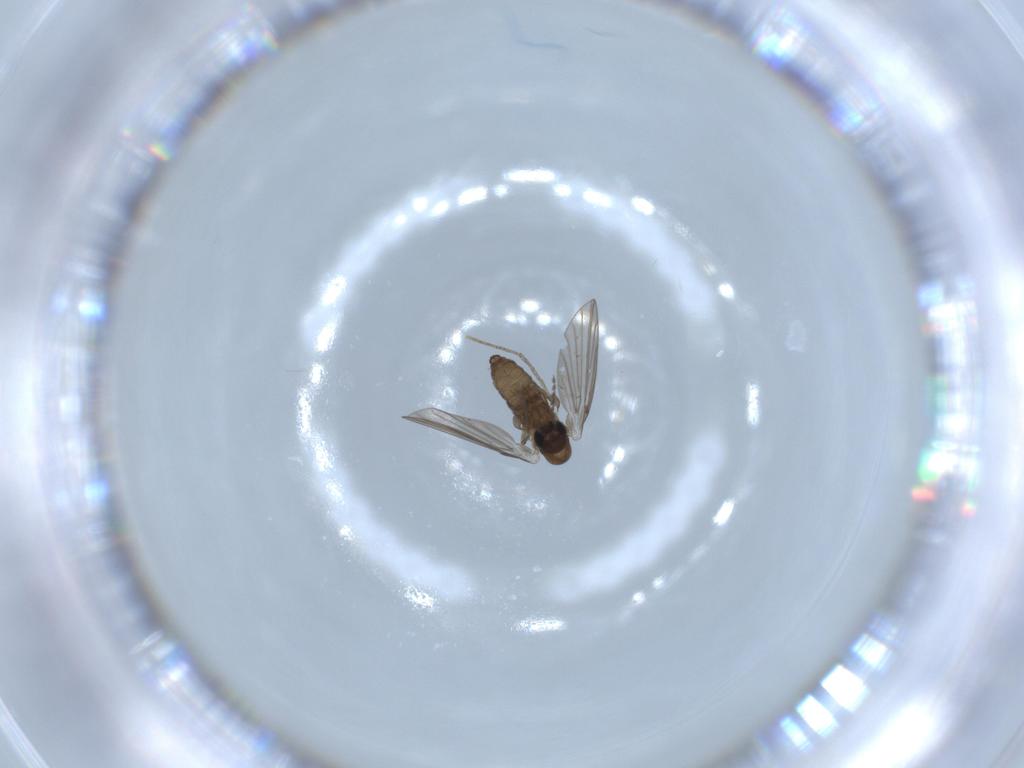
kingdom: Animalia
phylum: Arthropoda
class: Insecta
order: Diptera
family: Psychodidae
